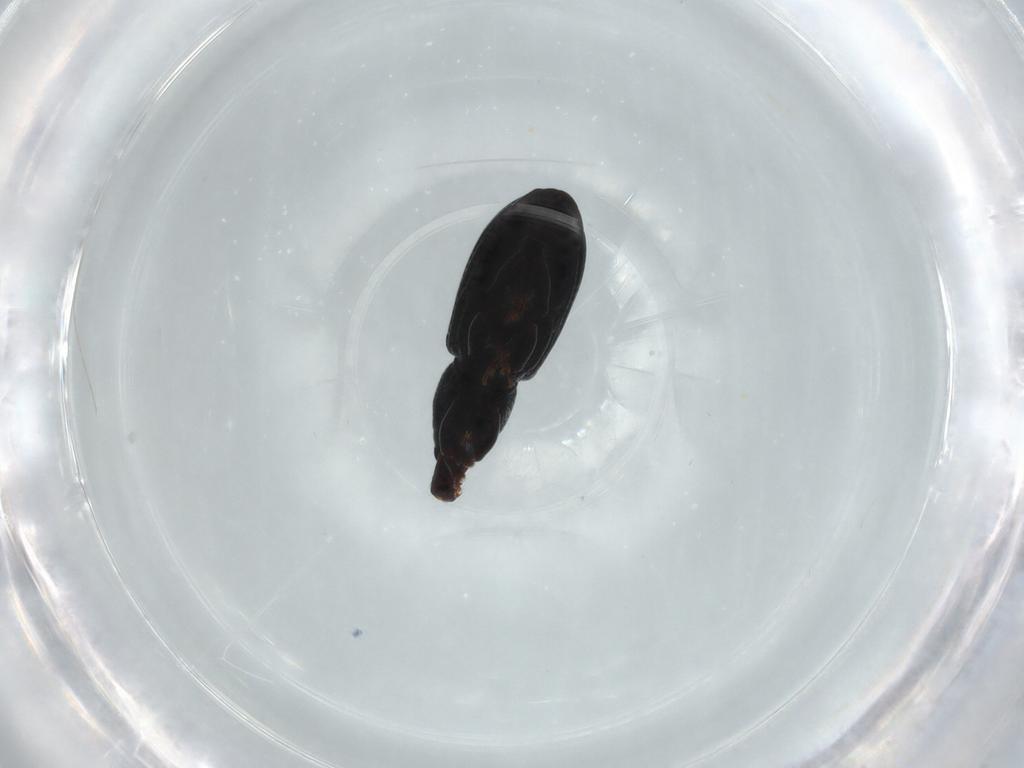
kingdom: Animalia
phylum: Arthropoda
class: Insecta
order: Coleoptera
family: Curculionidae
